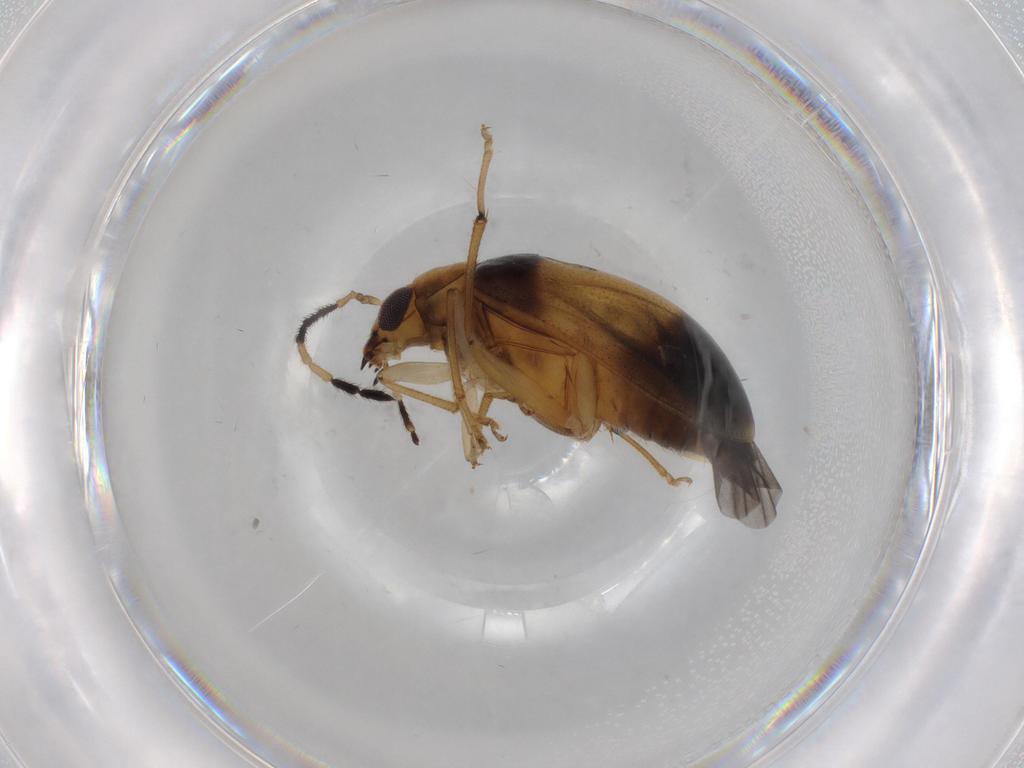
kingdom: Animalia
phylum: Arthropoda
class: Insecta
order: Coleoptera
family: Chrysomelidae
